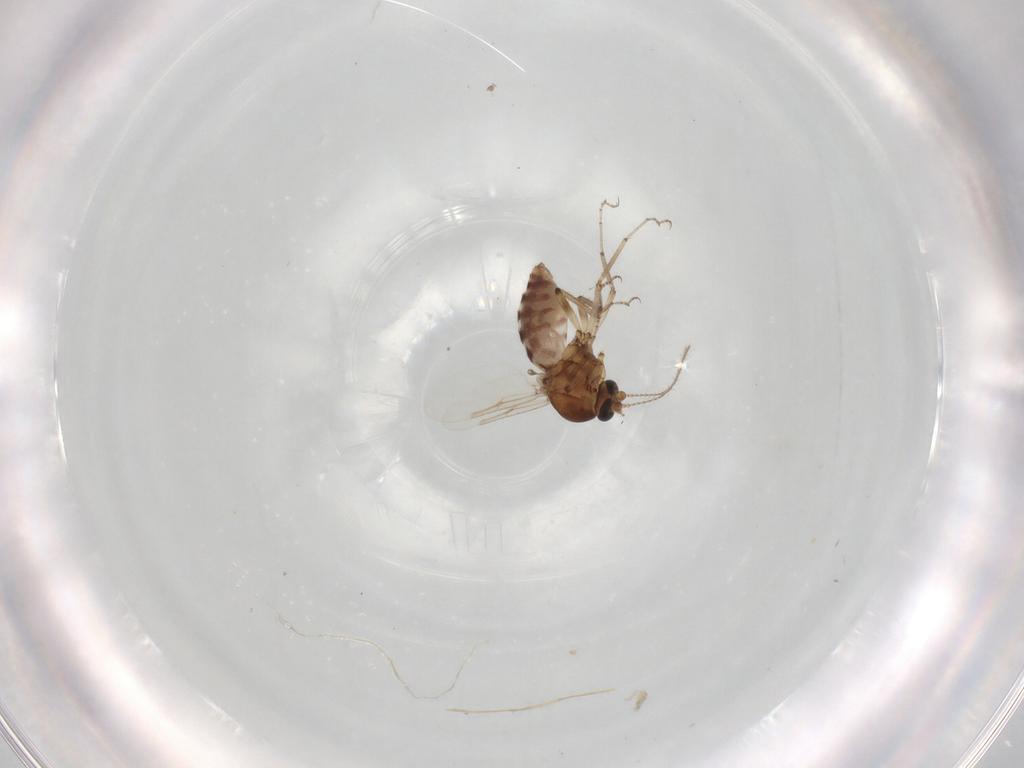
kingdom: Animalia
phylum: Arthropoda
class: Insecta
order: Diptera
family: Ceratopogonidae
